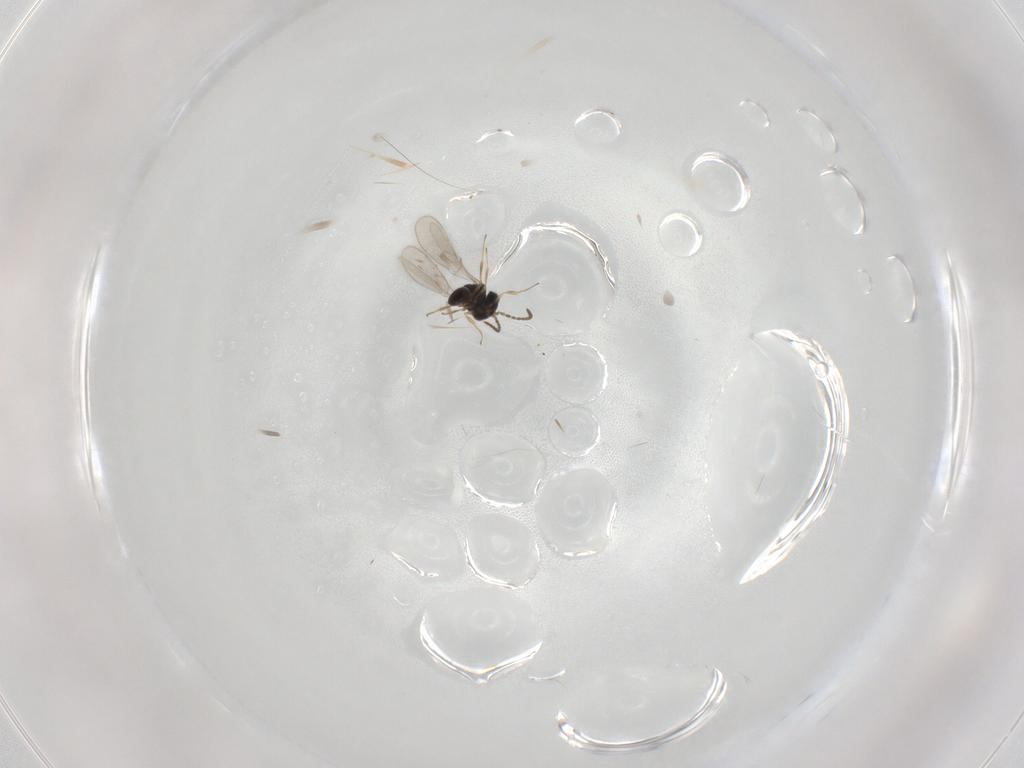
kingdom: Animalia
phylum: Arthropoda
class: Insecta
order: Hymenoptera
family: Scelionidae
